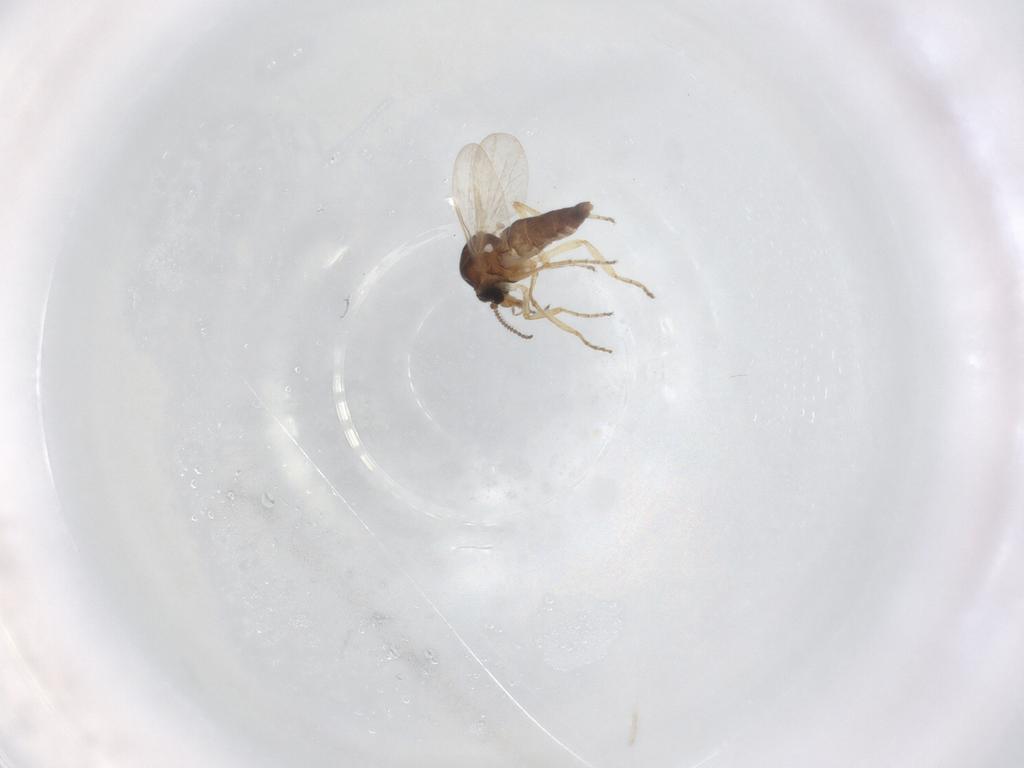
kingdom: Animalia
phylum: Arthropoda
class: Insecta
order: Diptera
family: Ceratopogonidae
